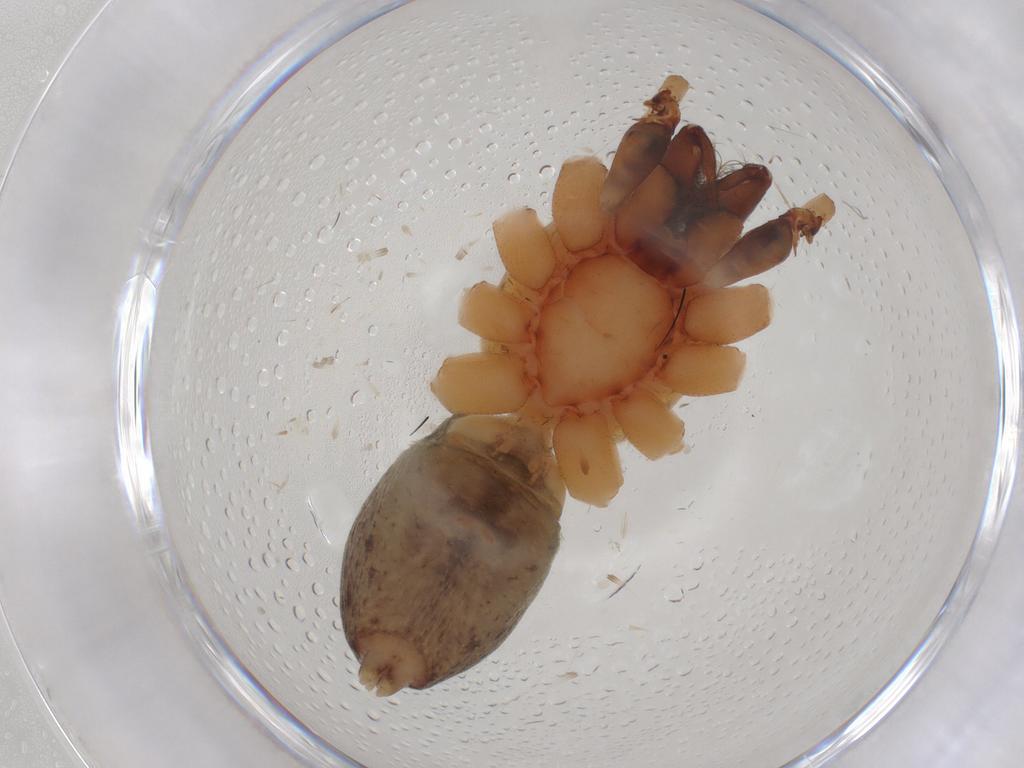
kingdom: Animalia
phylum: Arthropoda
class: Arachnida
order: Araneae
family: Anyphaenidae
